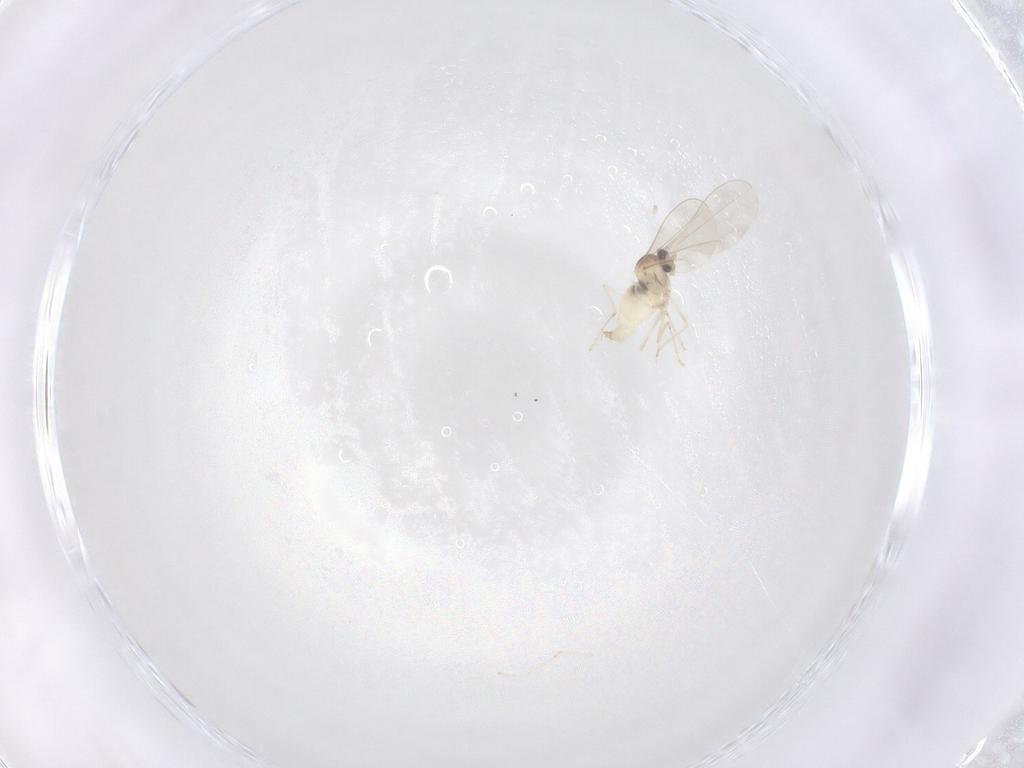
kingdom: Animalia
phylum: Arthropoda
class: Insecta
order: Diptera
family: Cecidomyiidae
